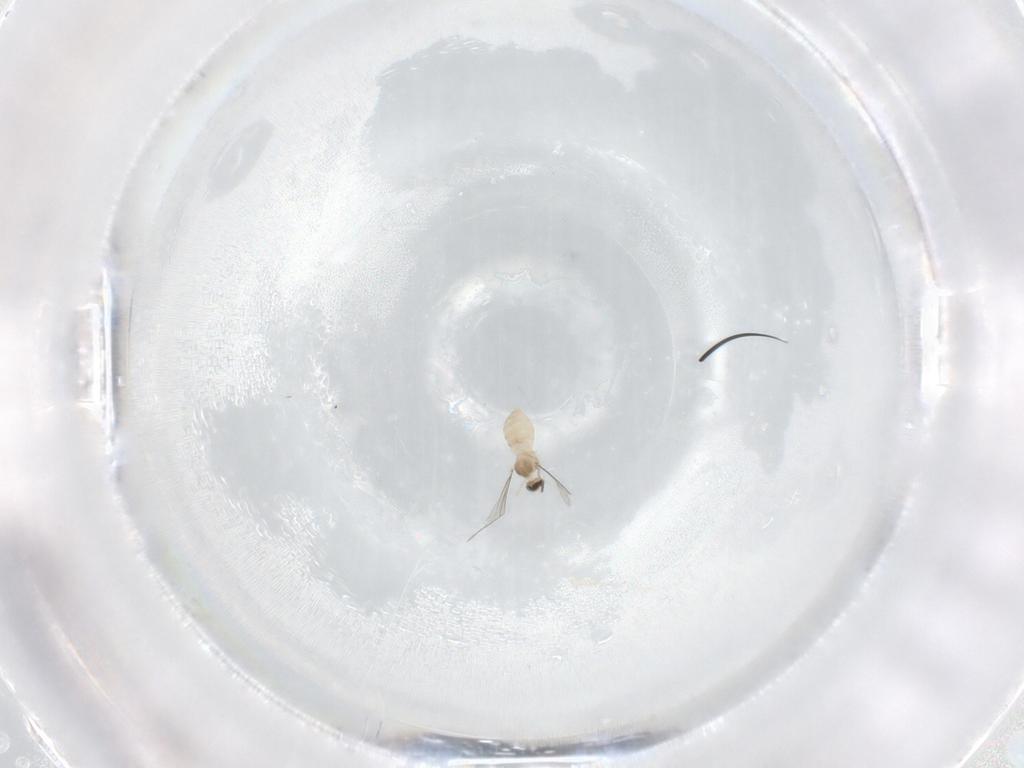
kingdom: Animalia
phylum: Arthropoda
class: Insecta
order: Diptera
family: Cecidomyiidae
